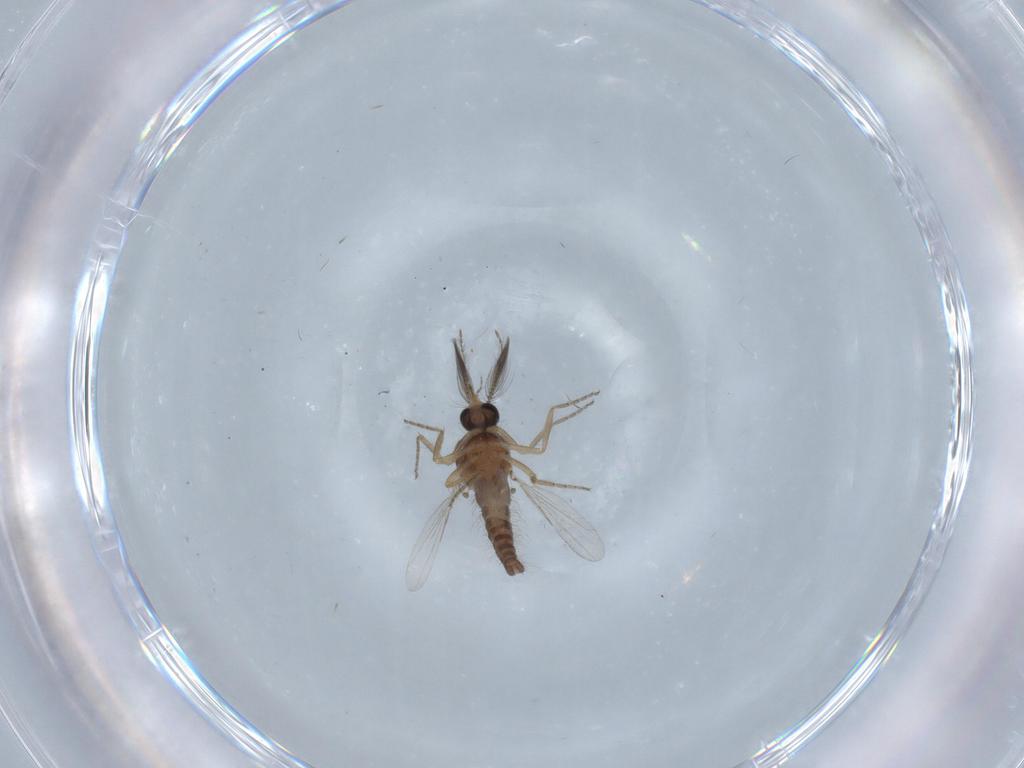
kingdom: Animalia
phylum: Arthropoda
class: Insecta
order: Diptera
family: Ceratopogonidae
